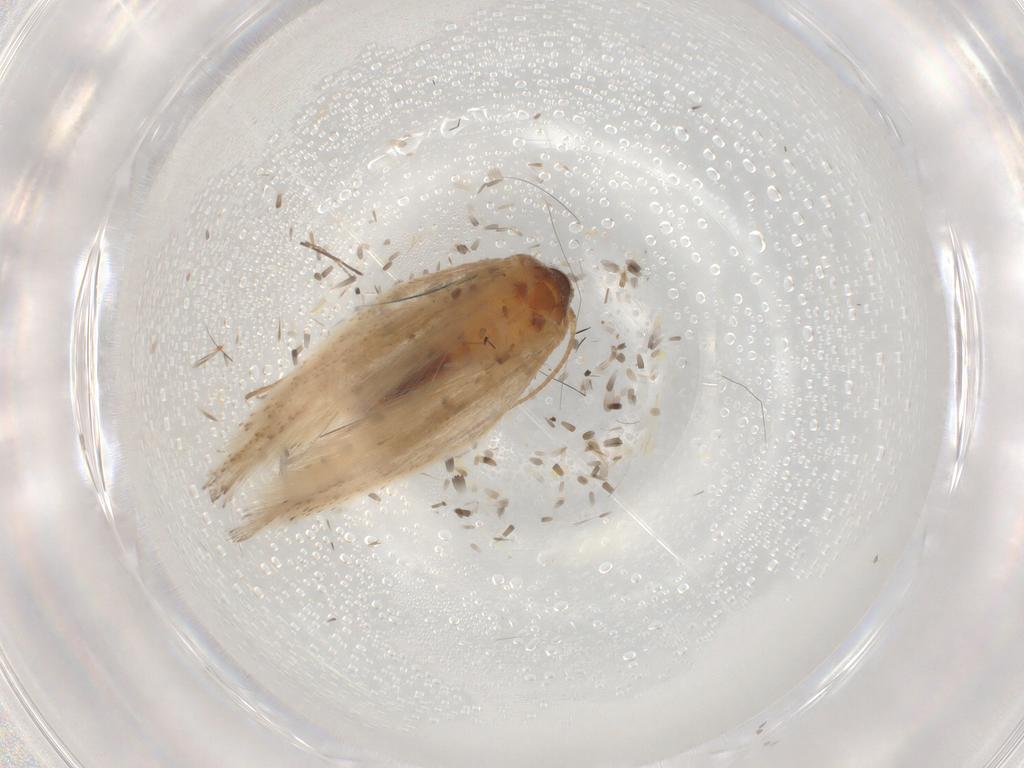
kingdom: Animalia
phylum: Arthropoda
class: Insecta
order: Lepidoptera
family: Gelechiidae
